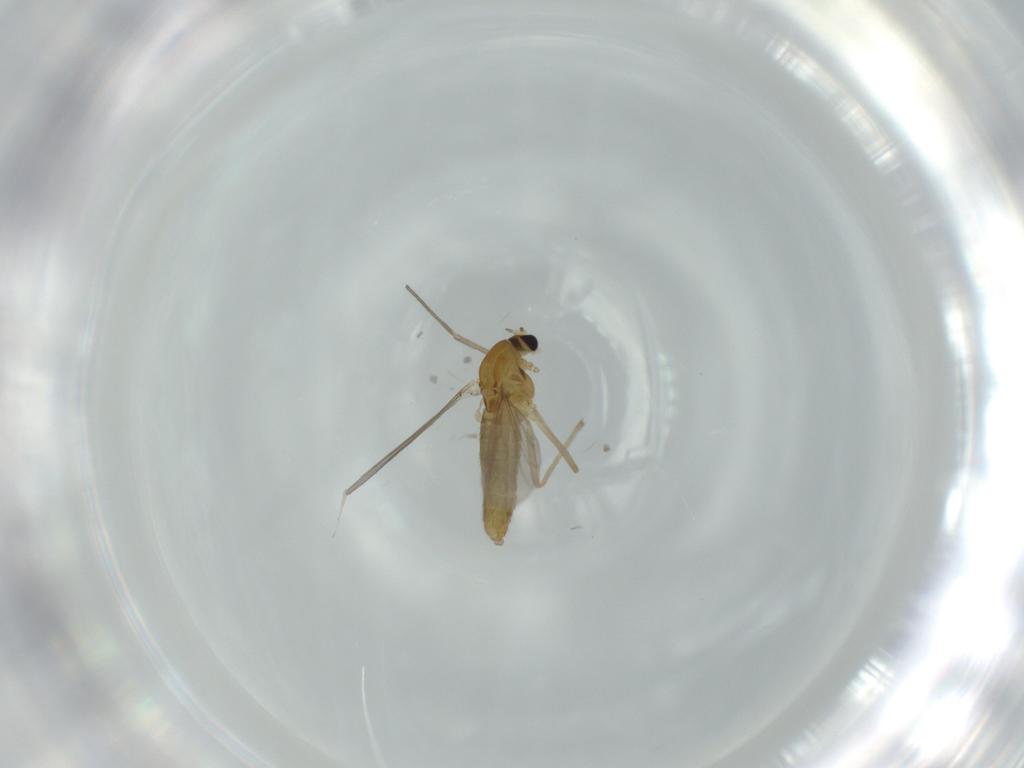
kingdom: Animalia
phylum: Arthropoda
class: Insecta
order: Diptera
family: Chironomidae
